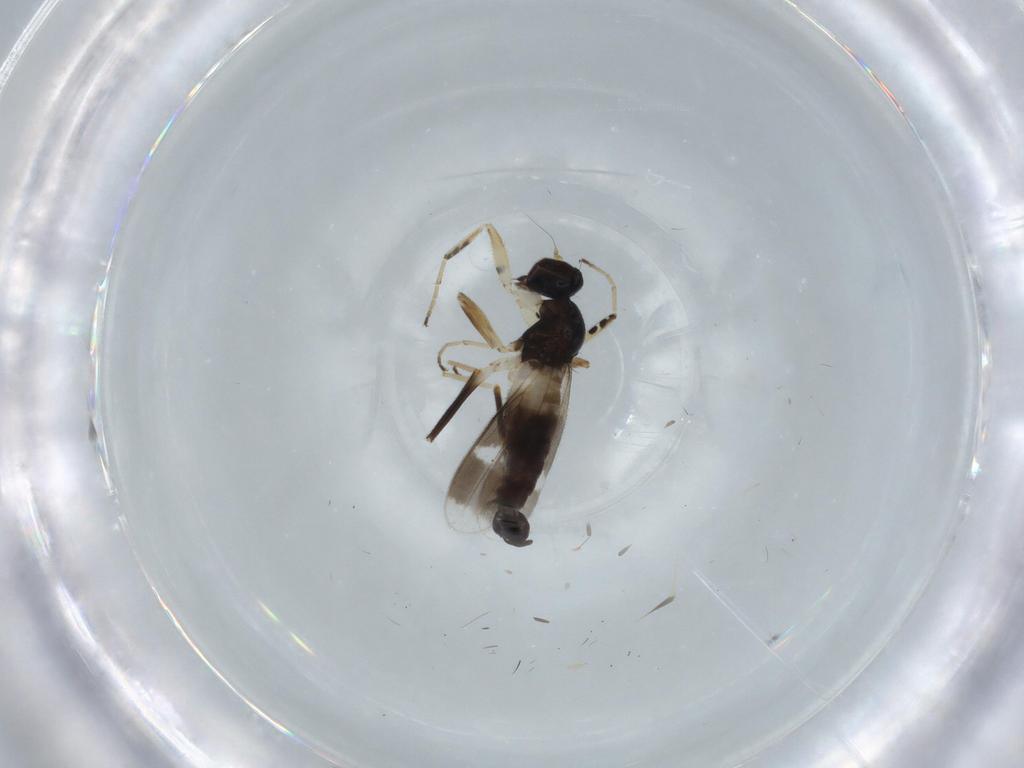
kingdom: Animalia
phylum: Arthropoda
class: Insecta
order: Diptera
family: Hybotidae
